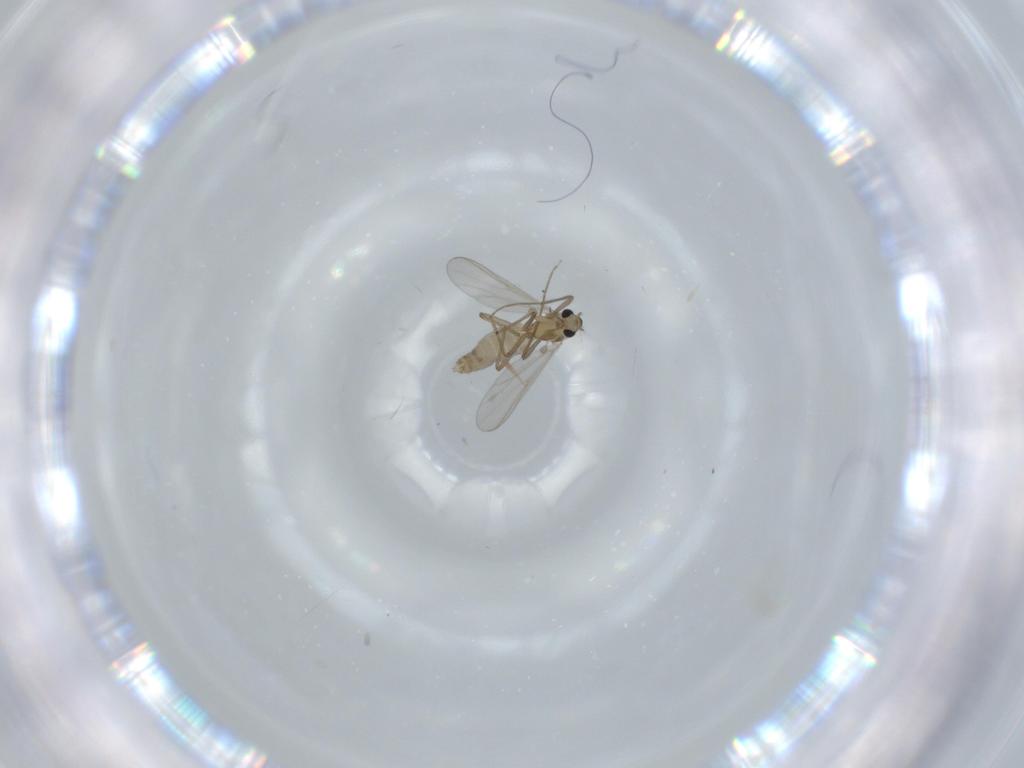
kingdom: Animalia
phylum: Arthropoda
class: Insecta
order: Diptera
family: Chironomidae
